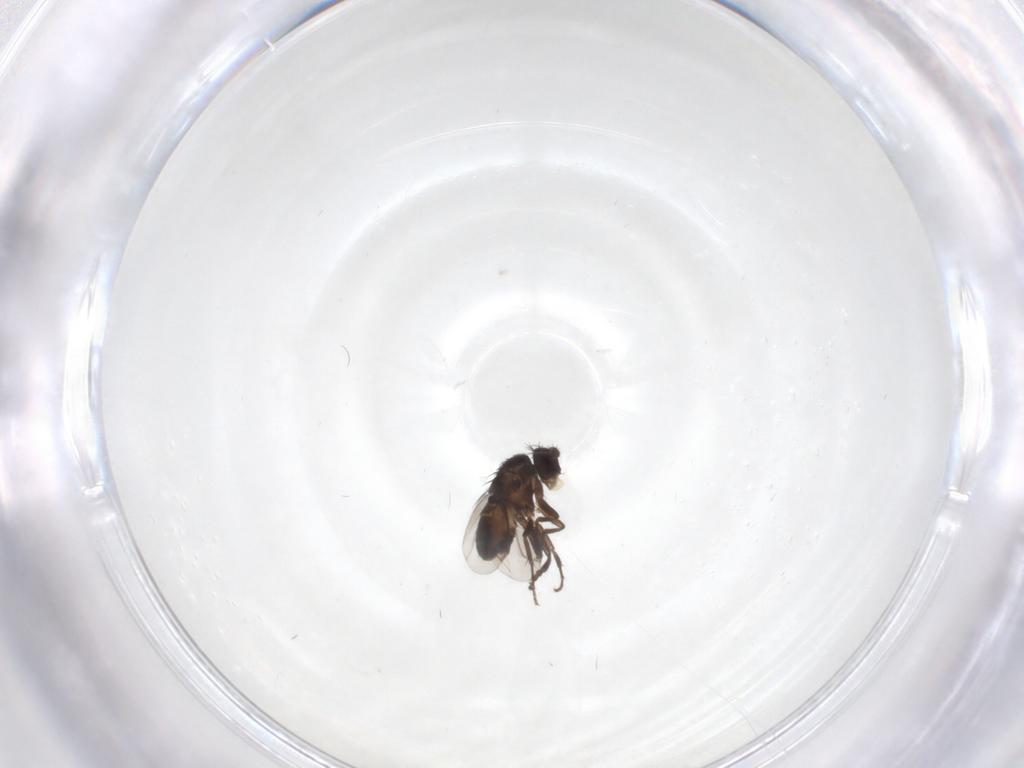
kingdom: Animalia
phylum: Arthropoda
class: Insecta
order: Diptera
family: Sphaeroceridae
